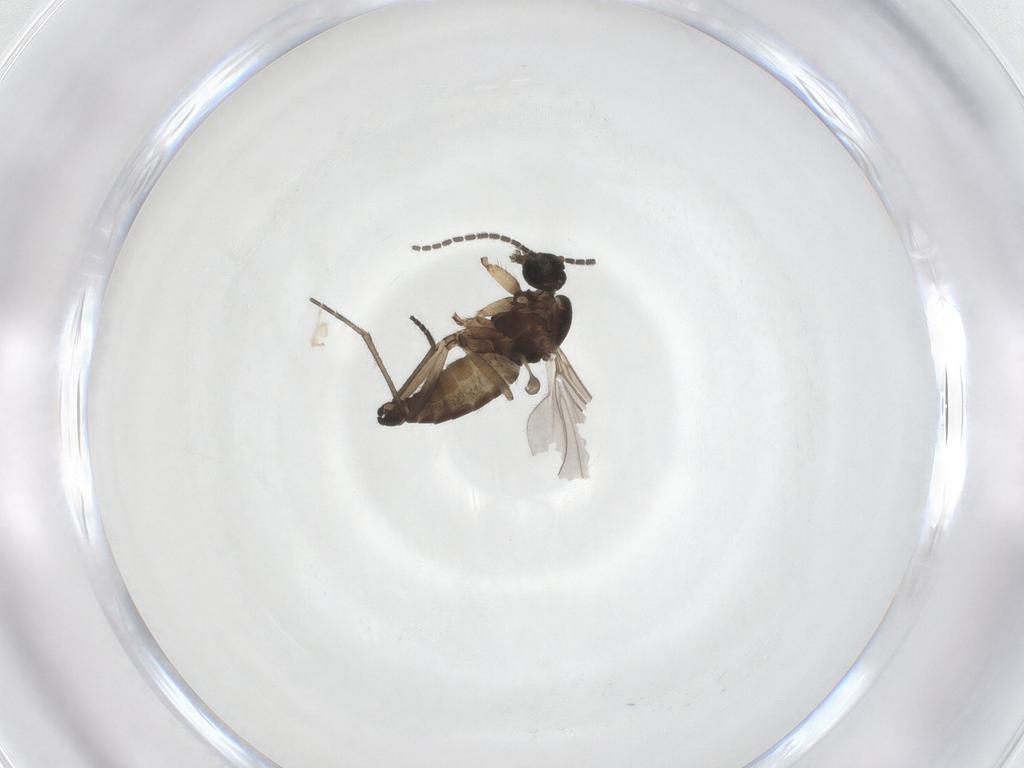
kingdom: Animalia
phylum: Arthropoda
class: Insecta
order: Diptera
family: Sciaridae
